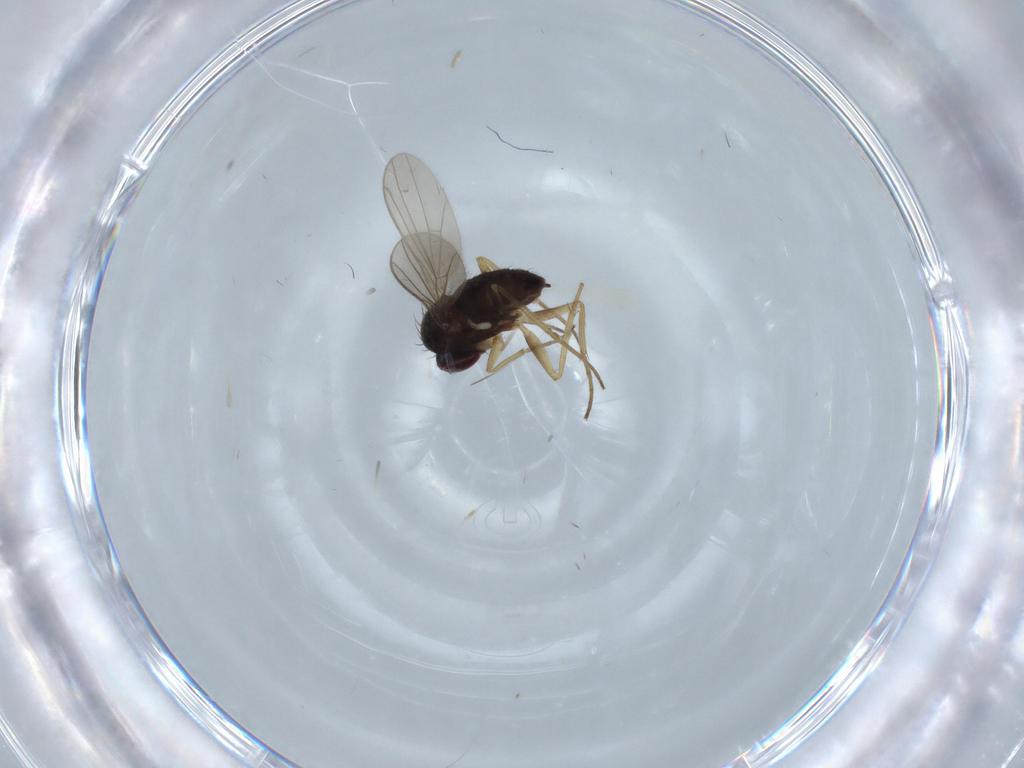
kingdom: Animalia
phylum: Arthropoda
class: Insecta
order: Diptera
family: Dolichopodidae
